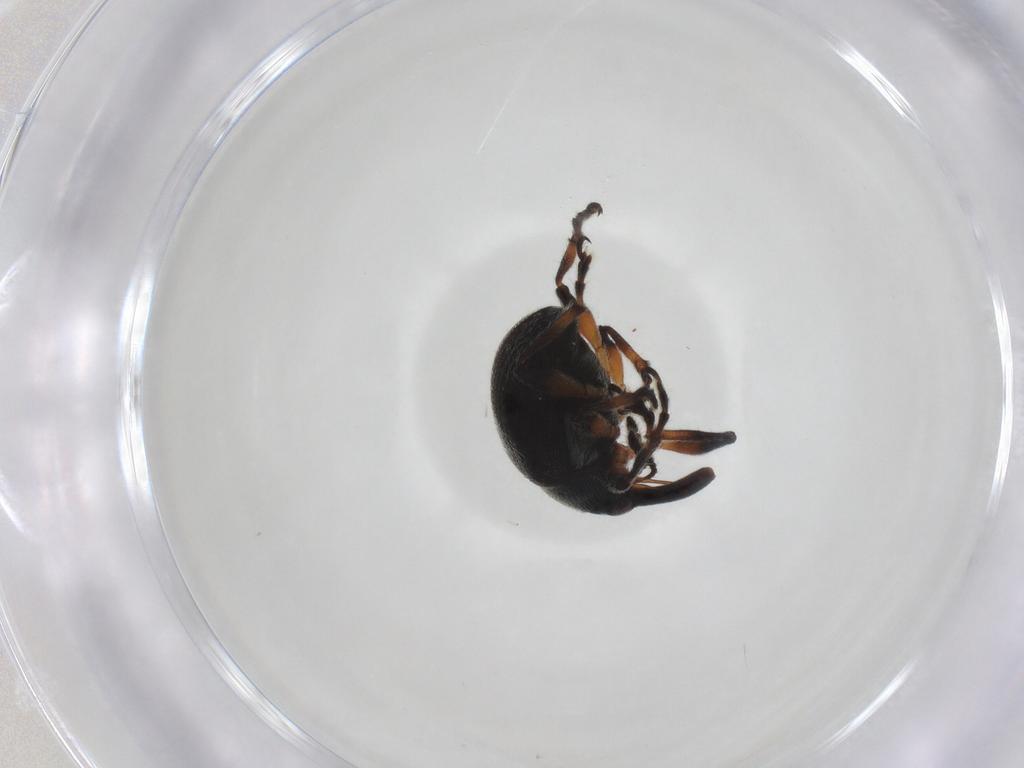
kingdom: Animalia
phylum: Arthropoda
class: Insecta
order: Coleoptera
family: Brentidae
